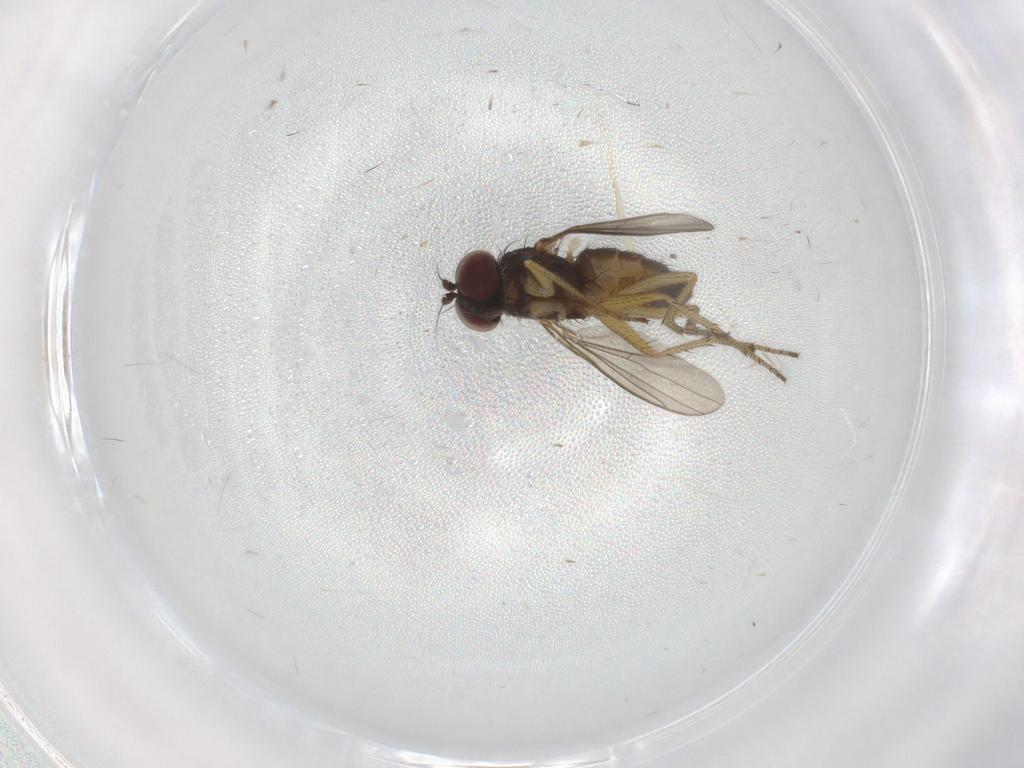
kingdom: Animalia
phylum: Arthropoda
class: Insecta
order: Diptera
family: Dolichopodidae
